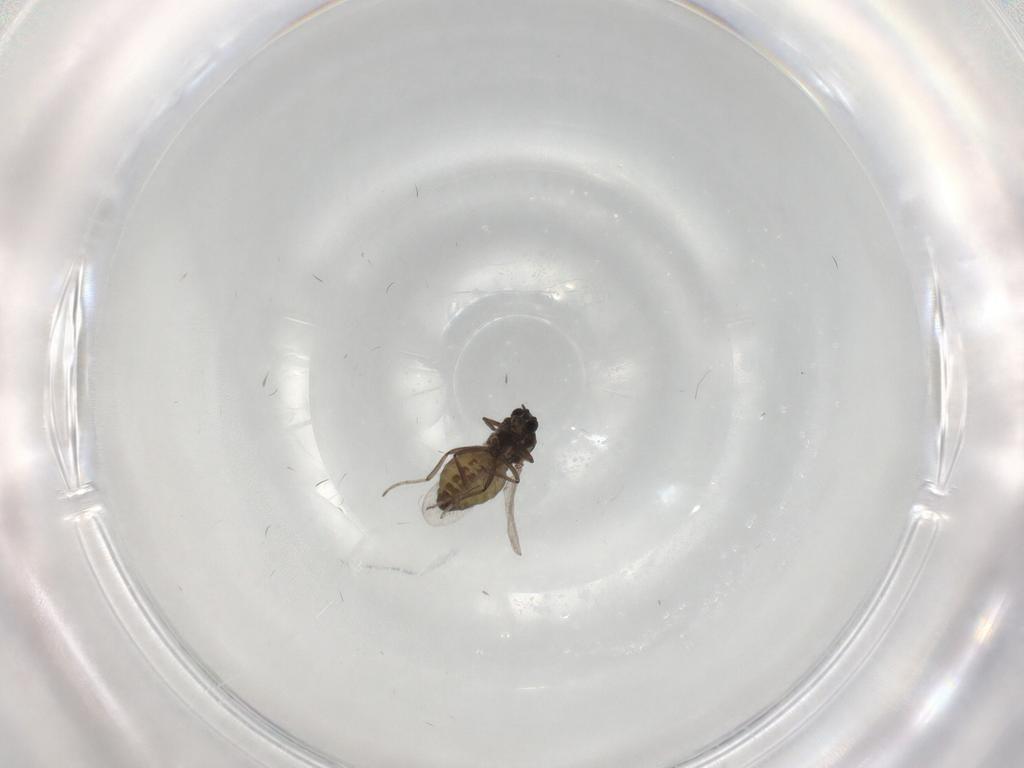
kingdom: Animalia
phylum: Arthropoda
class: Insecta
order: Diptera
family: Ceratopogonidae
